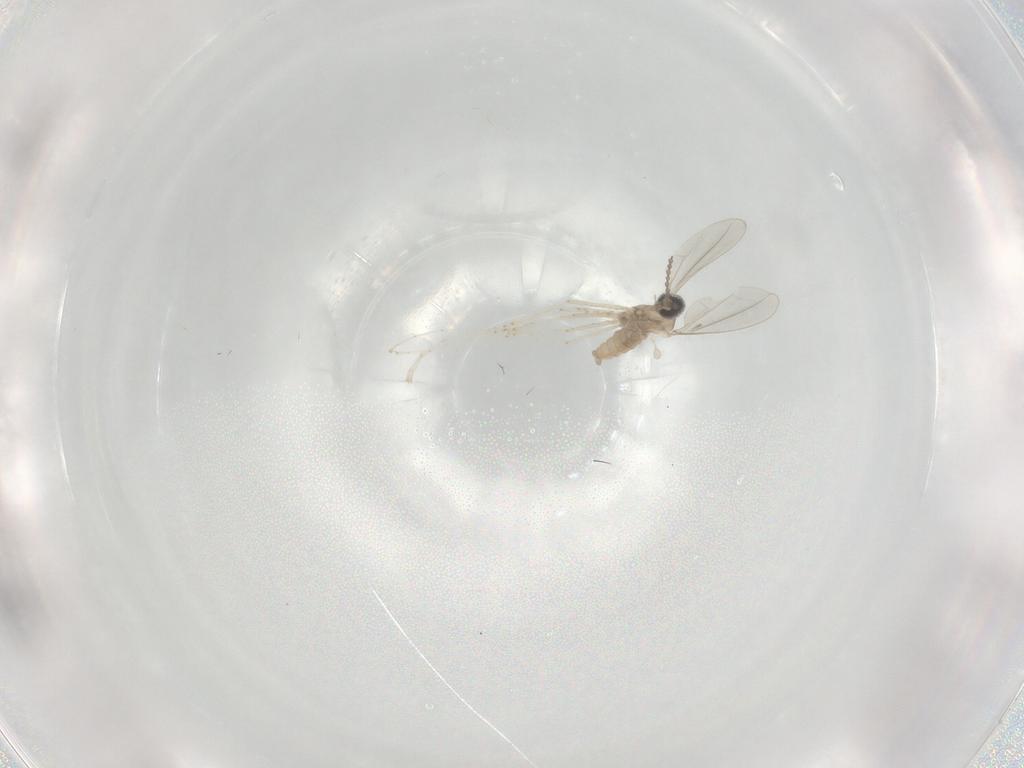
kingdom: Animalia
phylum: Arthropoda
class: Insecta
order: Diptera
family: Cecidomyiidae
